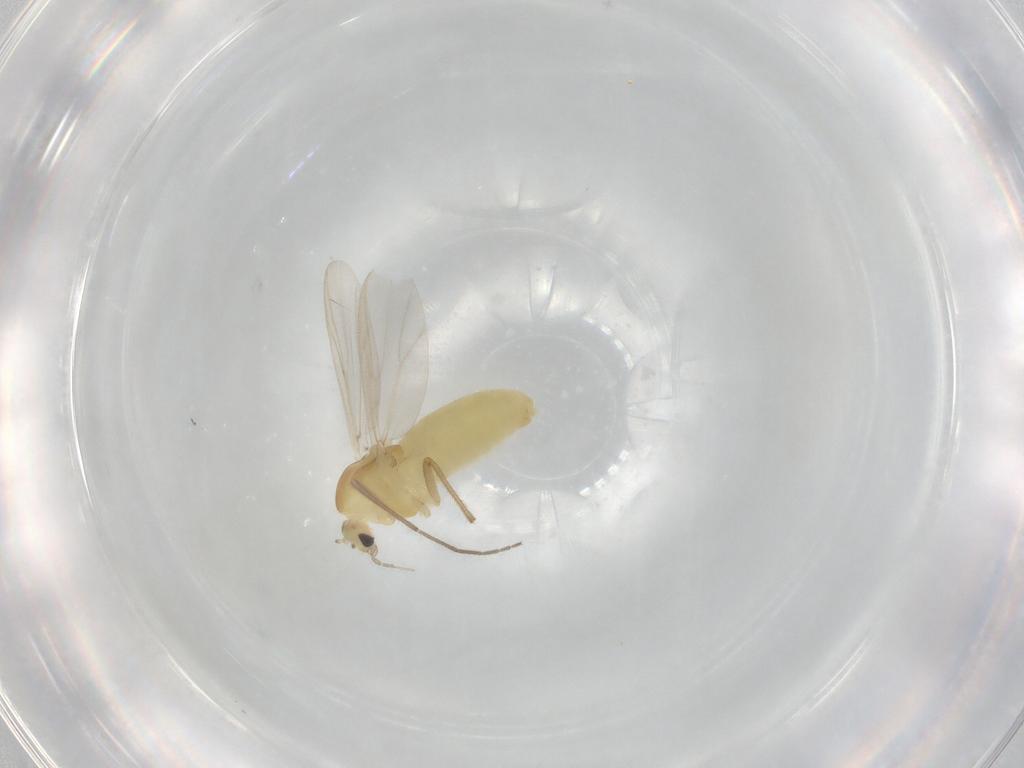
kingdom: Animalia
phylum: Arthropoda
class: Insecta
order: Diptera
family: Chironomidae
